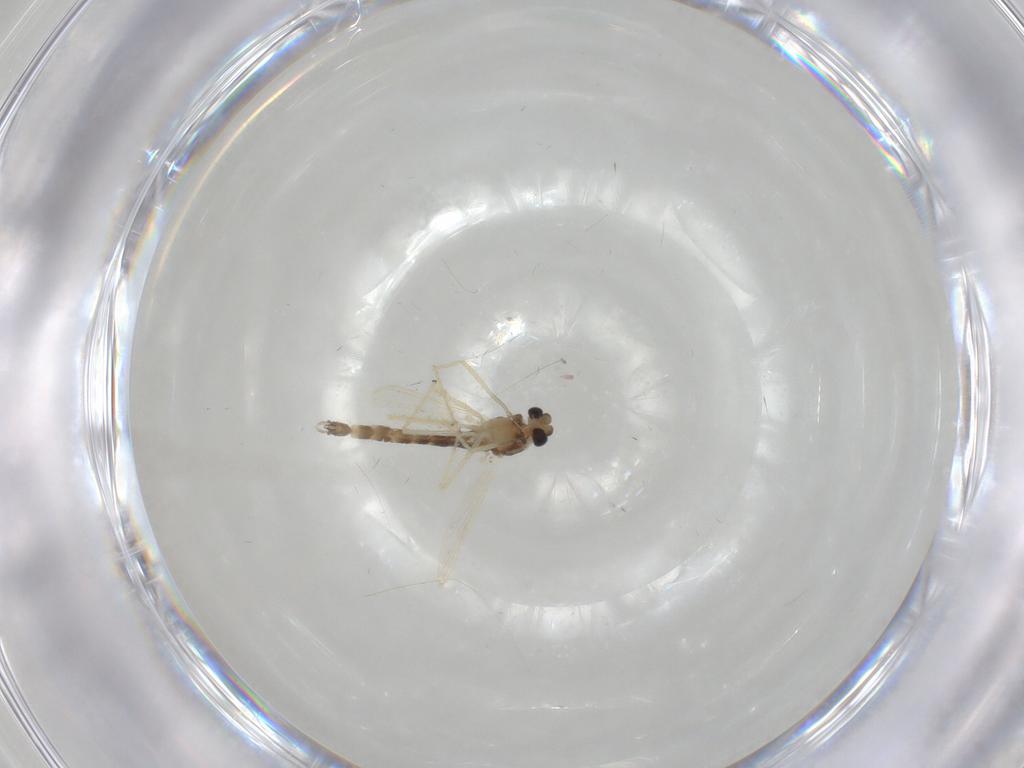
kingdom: Animalia
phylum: Arthropoda
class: Insecta
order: Diptera
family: Chironomidae
